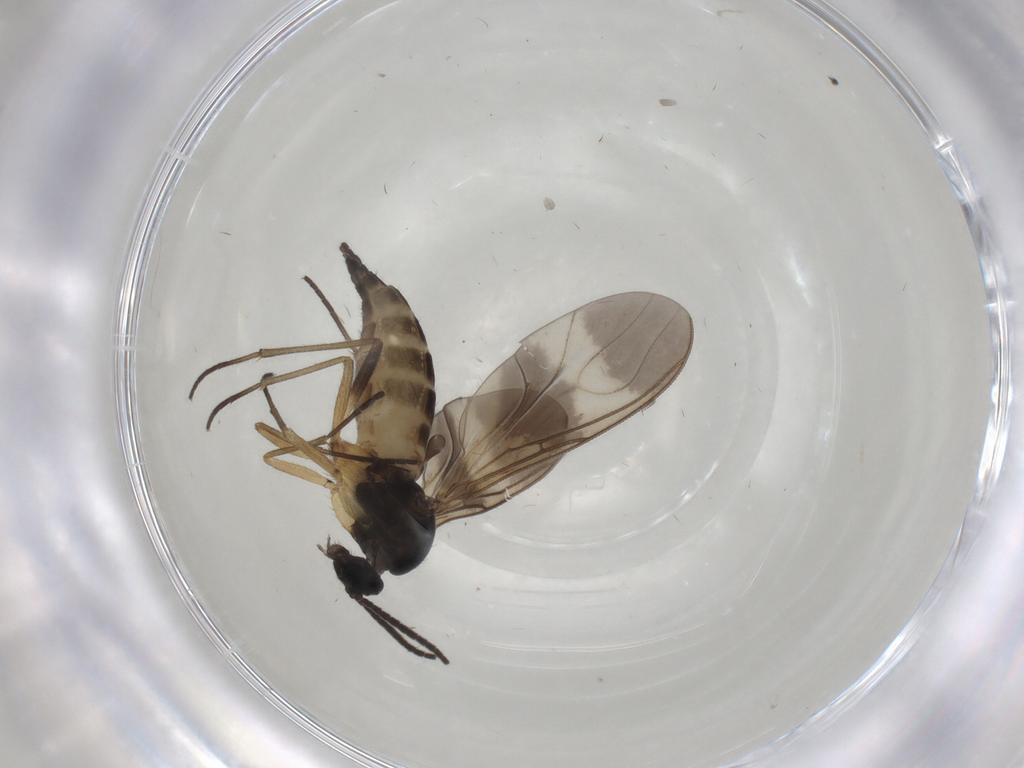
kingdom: Animalia
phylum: Arthropoda
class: Insecta
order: Diptera
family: Sciaridae
